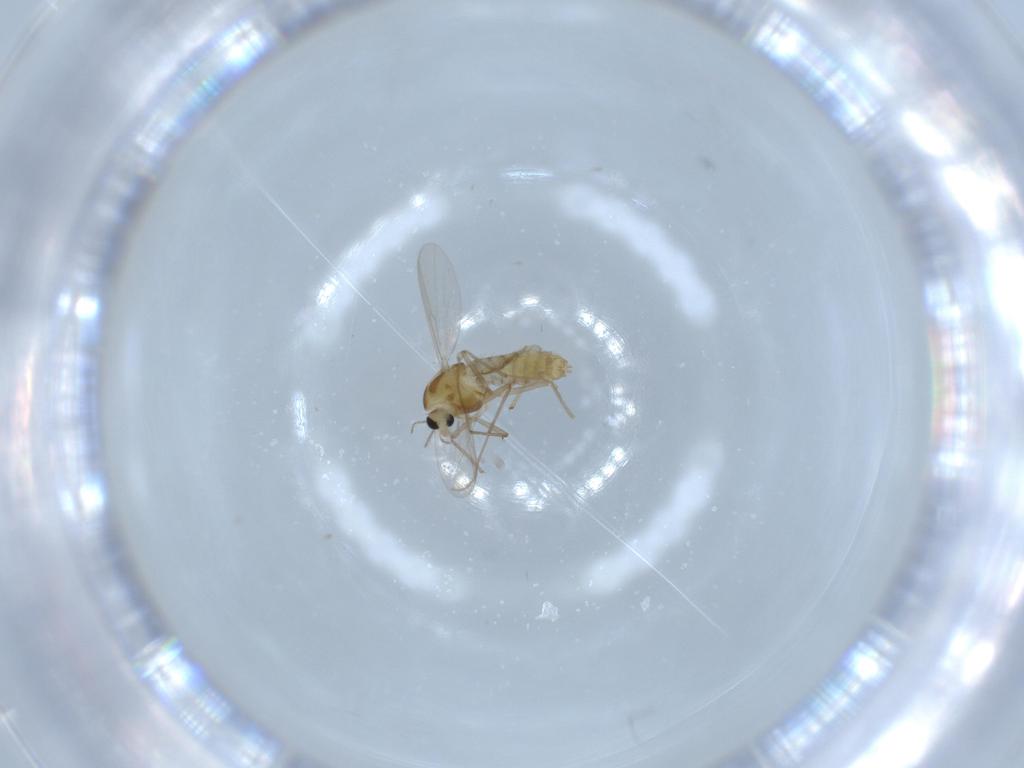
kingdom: Animalia
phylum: Arthropoda
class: Insecta
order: Diptera
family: Chironomidae
